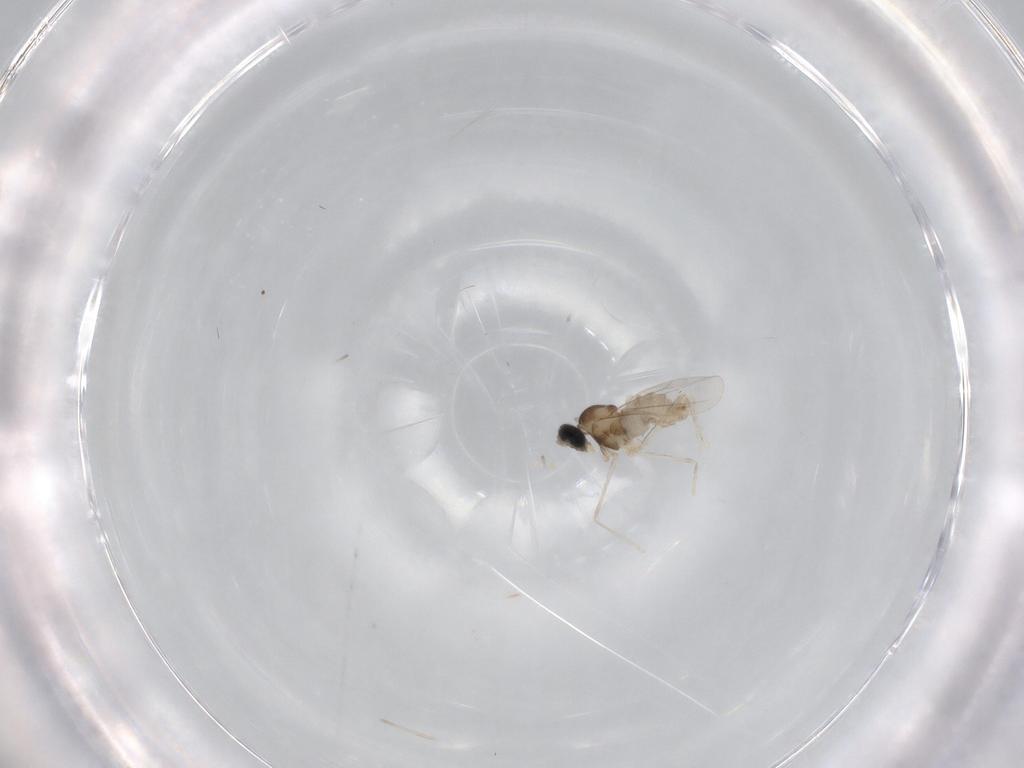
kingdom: Animalia
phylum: Arthropoda
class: Insecta
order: Diptera
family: Cecidomyiidae
